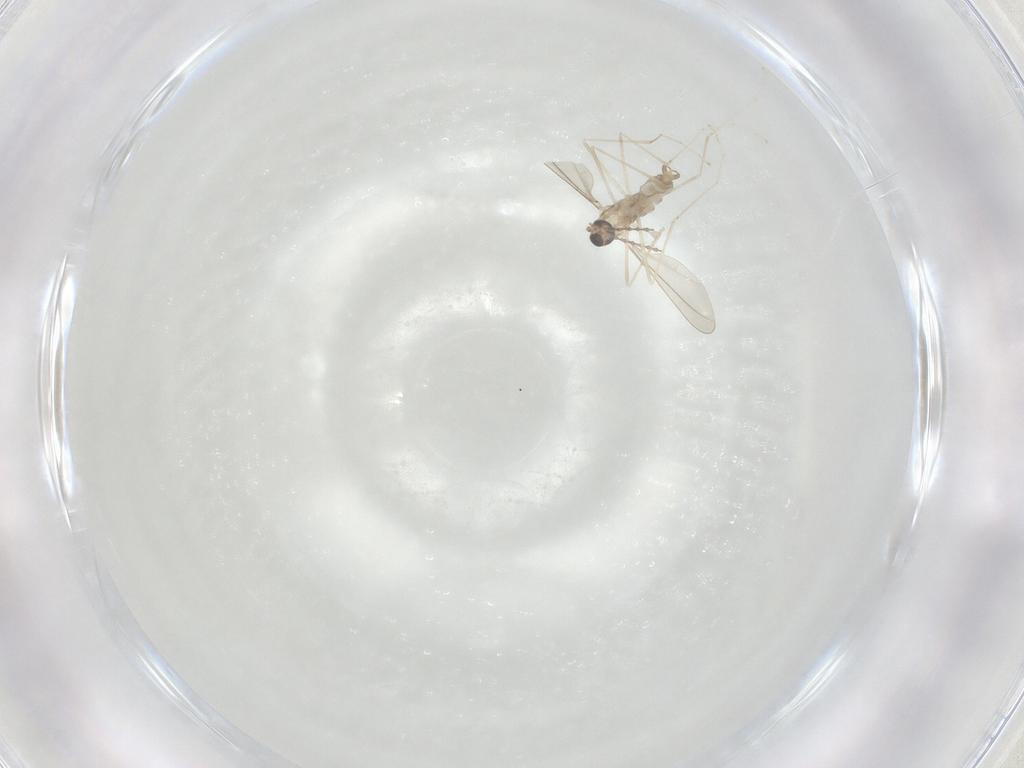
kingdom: Animalia
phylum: Arthropoda
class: Insecta
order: Diptera
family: Cecidomyiidae
